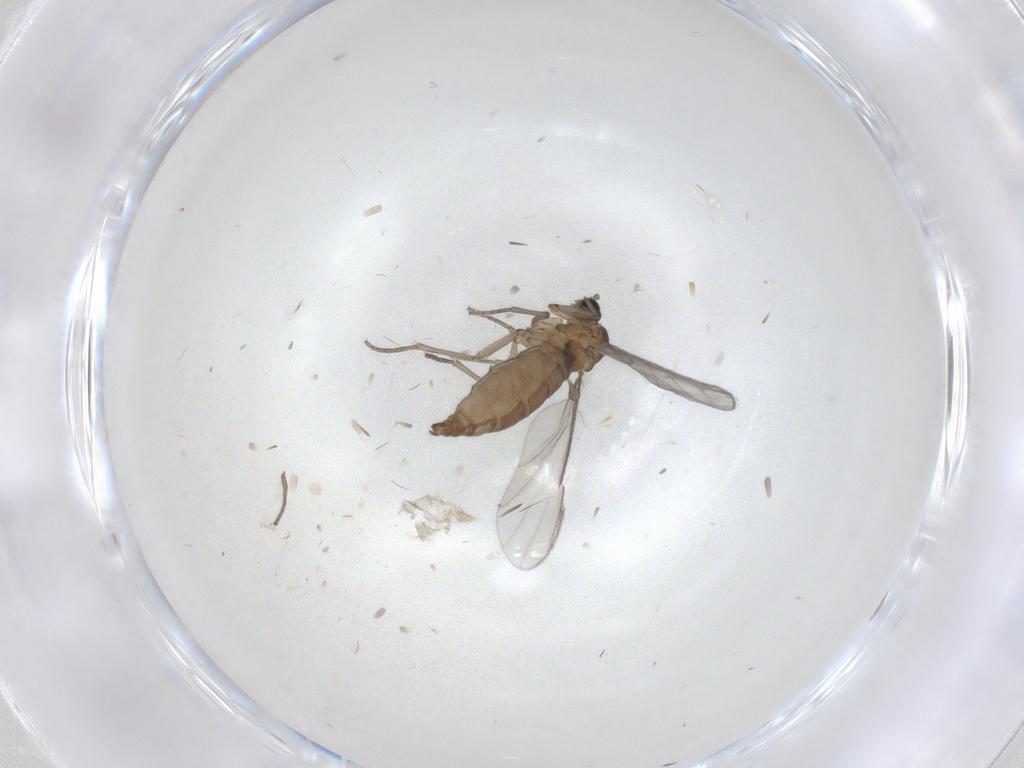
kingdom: Animalia
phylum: Arthropoda
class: Insecta
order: Diptera
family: Sciaridae
